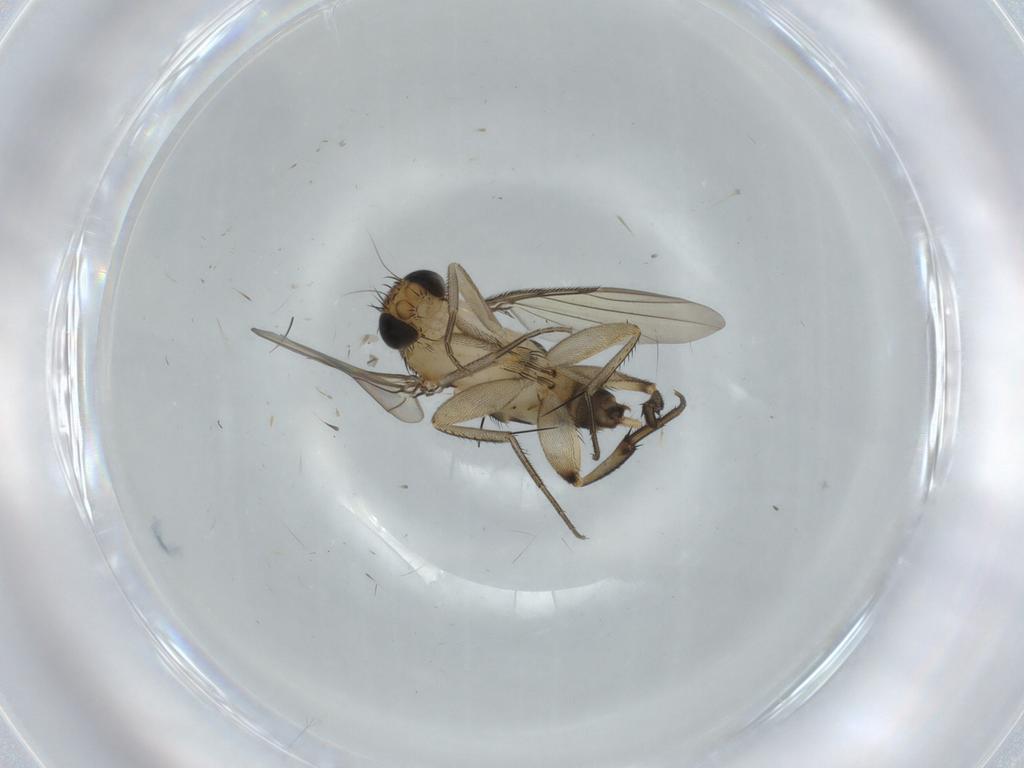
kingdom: Animalia
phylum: Arthropoda
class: Insecta
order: Diptera
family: Phoridae
